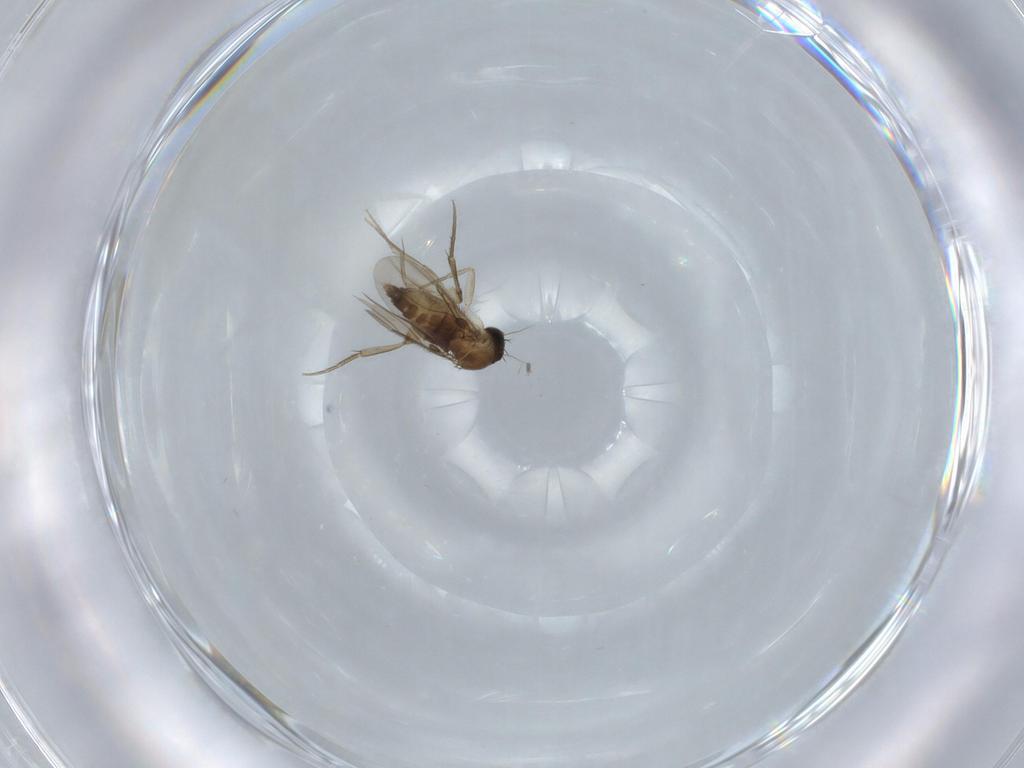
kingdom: Animalia
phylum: Arthropoda
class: Insecta
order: Diptera
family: Phoridae
